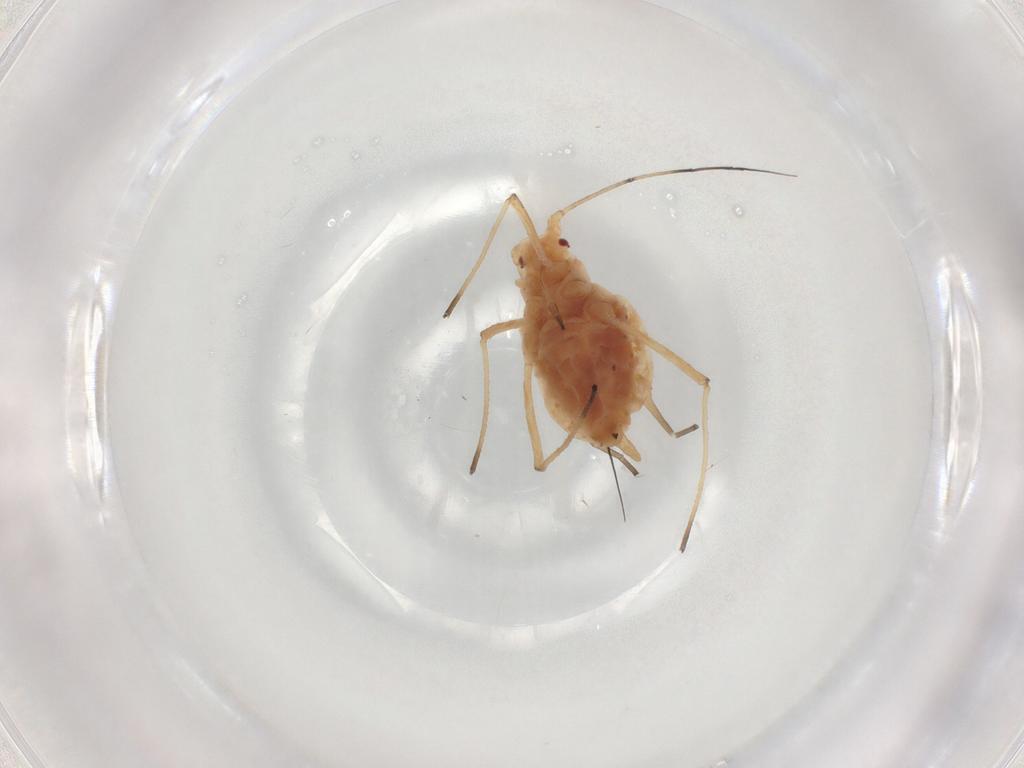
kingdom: Animalia
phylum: Arthropoda
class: Insecta
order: Hemiptera
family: Aphididae
